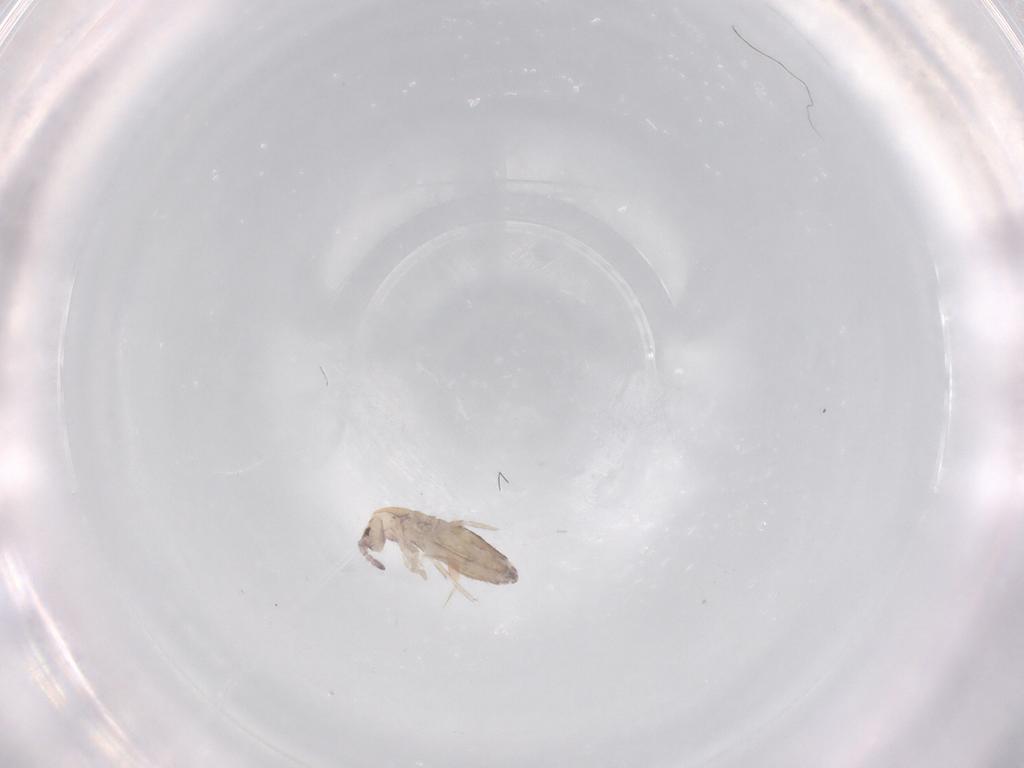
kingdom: Animalia
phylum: Arthropoda
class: Collembola
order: Entomobryomorpha
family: Entomobryidae
